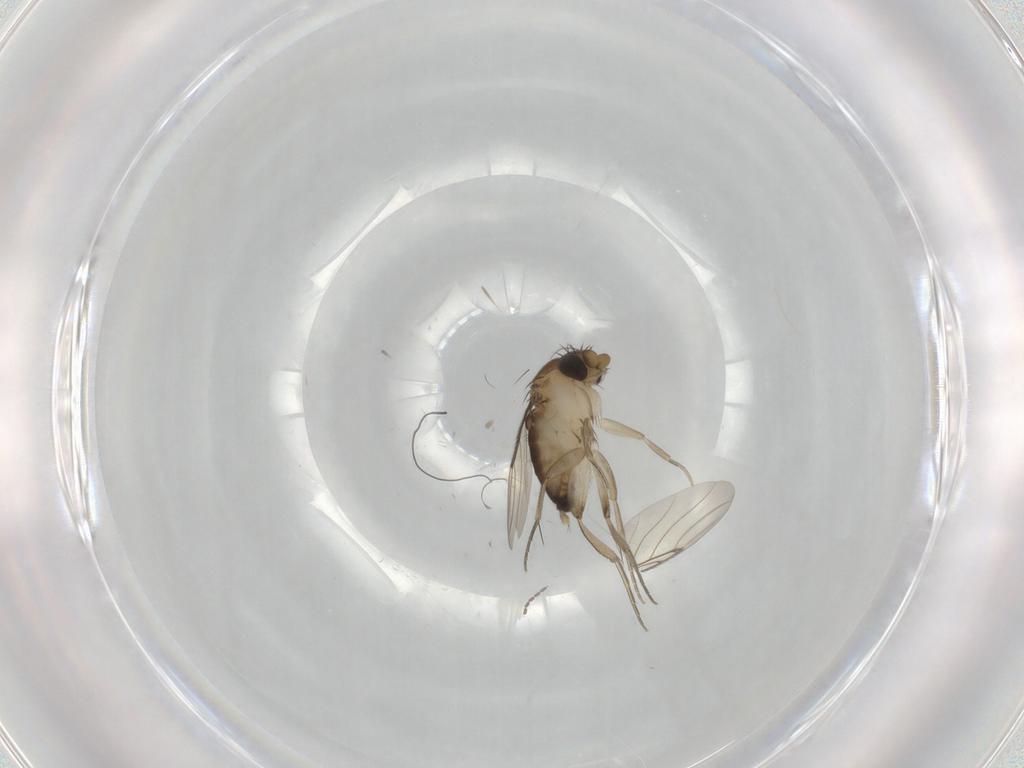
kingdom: Animalia
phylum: Arthropoda
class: Insecta
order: Diptera
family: Phoridae
